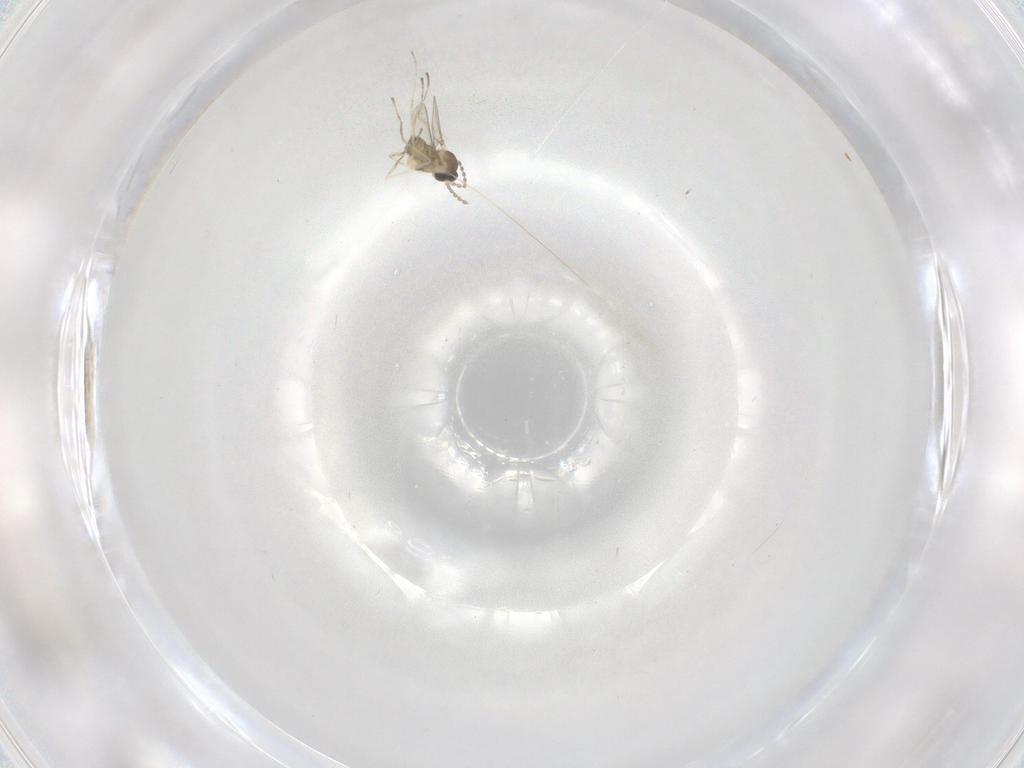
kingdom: Animalia
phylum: Arthropoda
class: Insecta
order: Diptera
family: Cecidomyiidae
